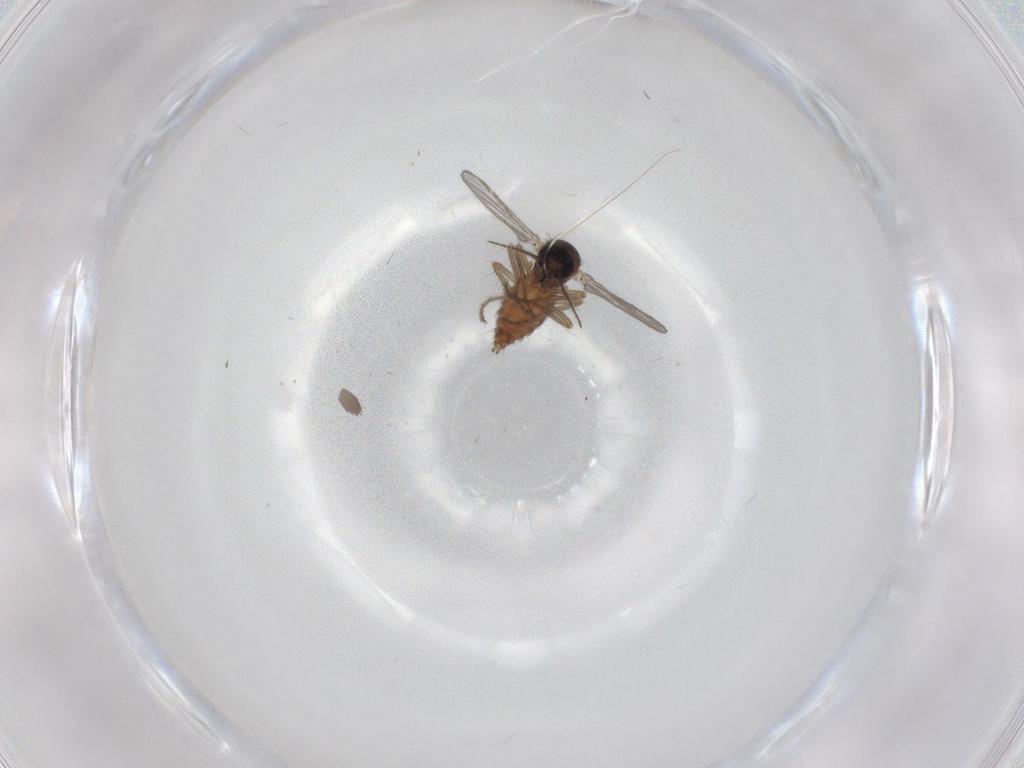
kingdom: Animalia
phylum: Arthropoda
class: Insecta
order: Diptera
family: Ceratopogonidae
